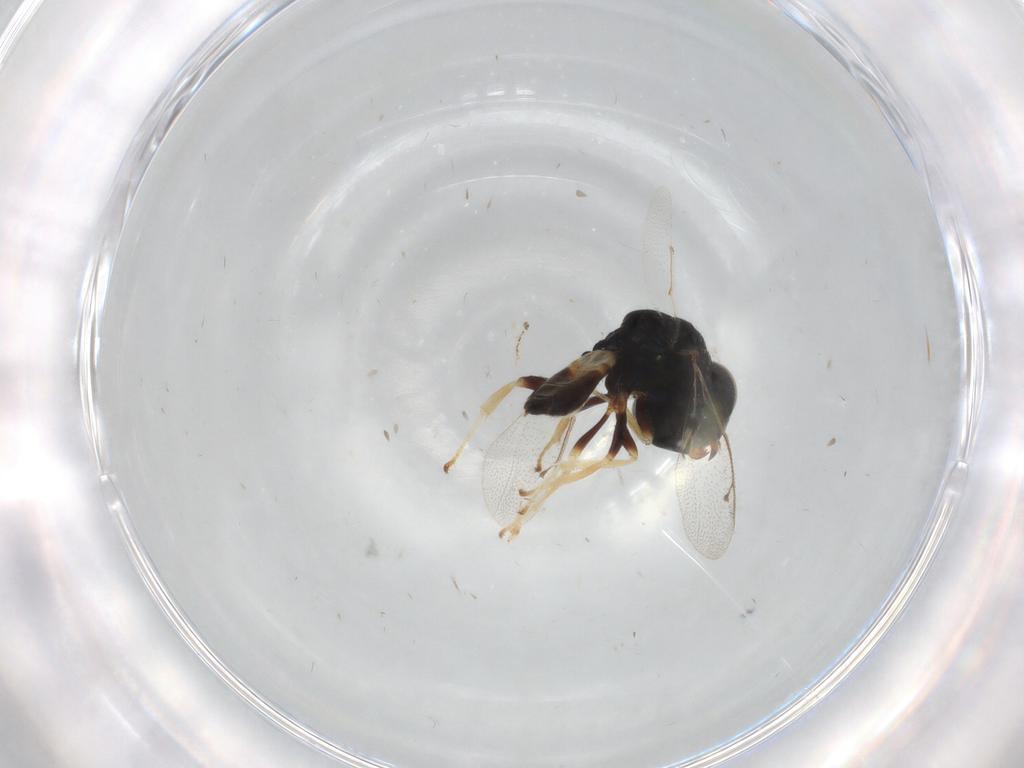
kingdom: Animalia
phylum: Arthropoda
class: Insecta
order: Hymenoptera
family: Pteromalidae
